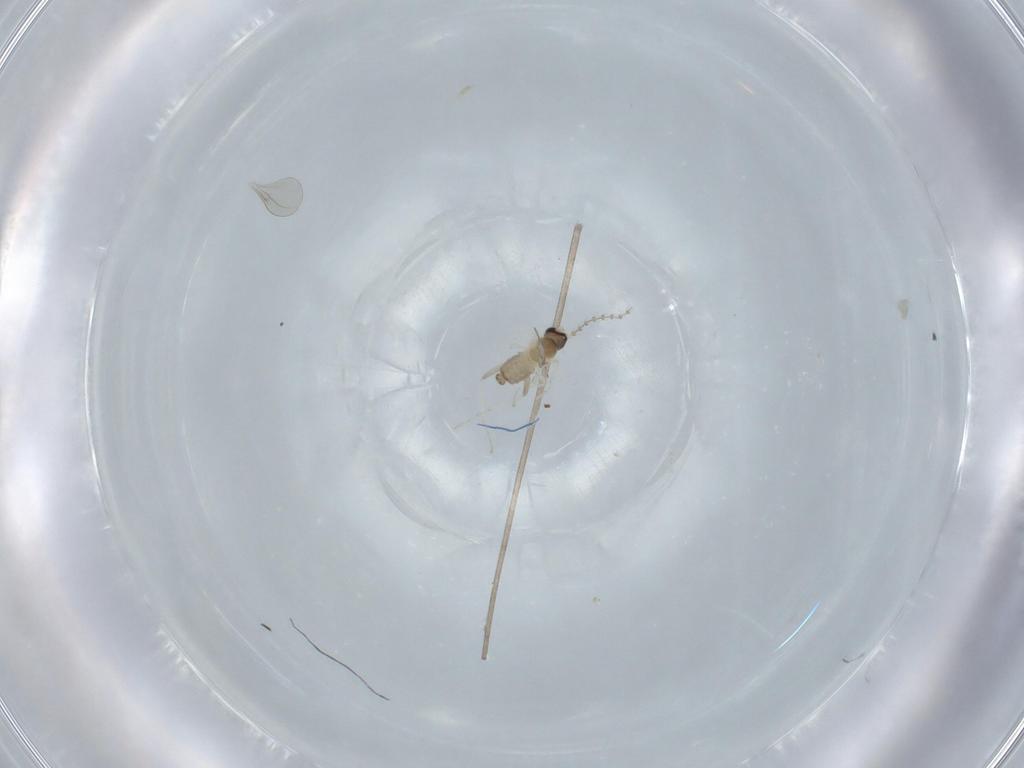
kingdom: Animalia
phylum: Arthropoda
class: Insecta
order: Diptera
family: Cecidomyiidae
